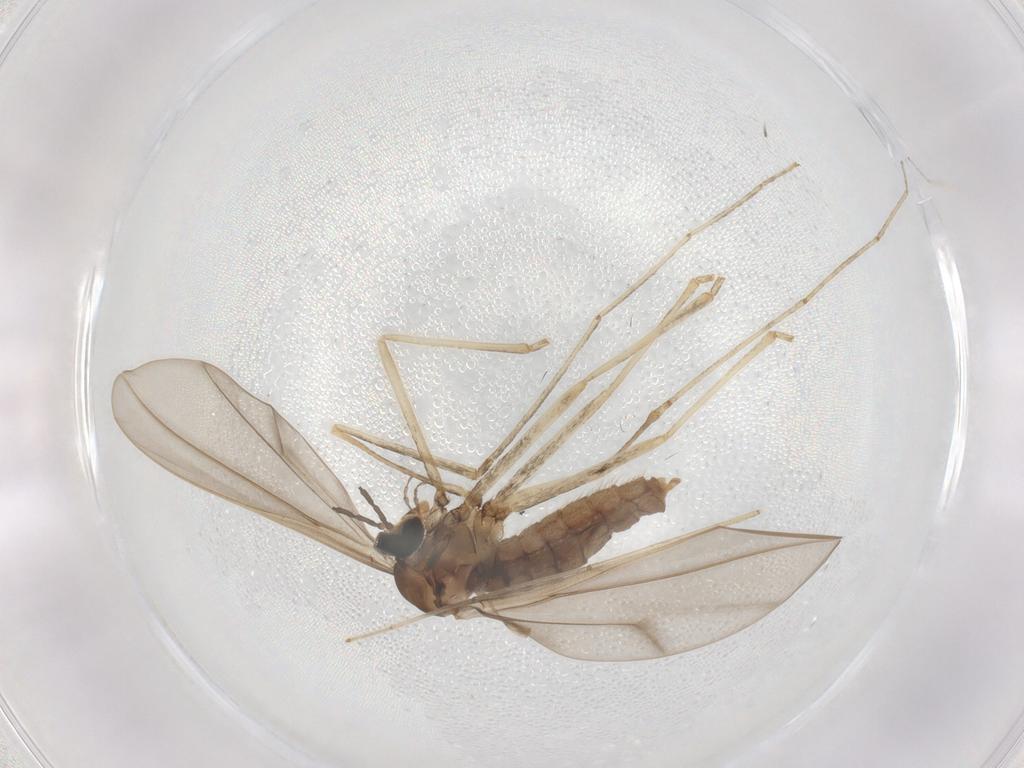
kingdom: Animalia
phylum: Arthropoda
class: Insecta
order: Diptera
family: Cecidomyiidae
